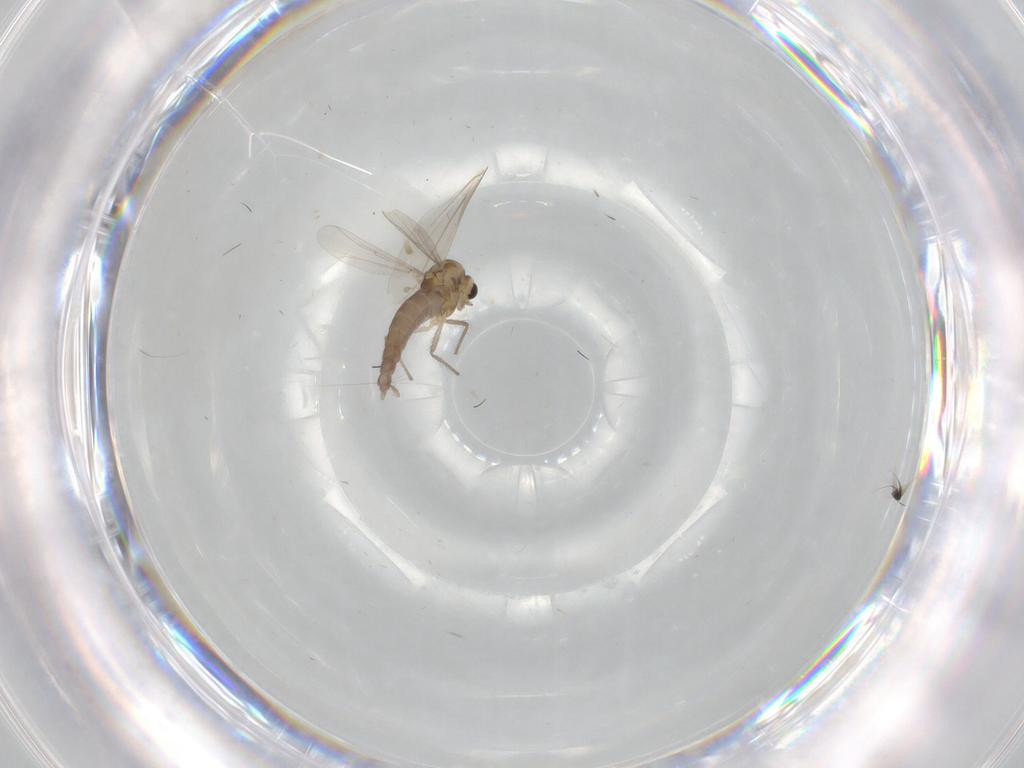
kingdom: Animalia
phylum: Arthropoda
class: Insecta
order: Diptera
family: Chironomidae
